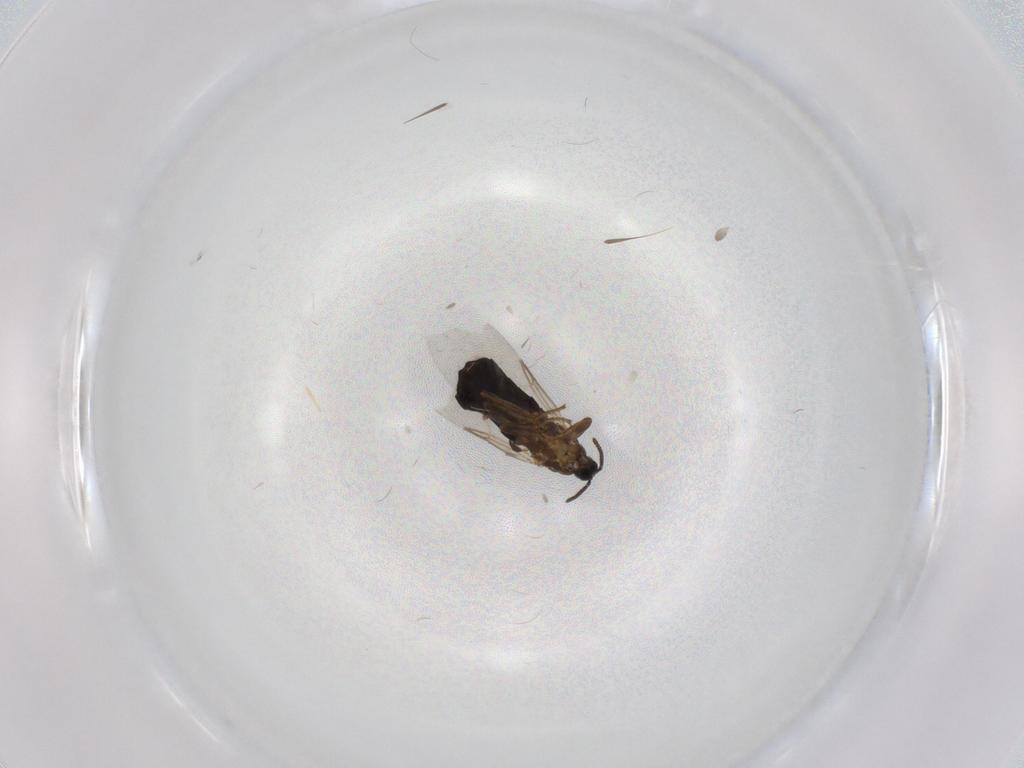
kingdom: Animalia
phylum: Arthropoda
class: Insecta
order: Diptera
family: Scatopsidae
